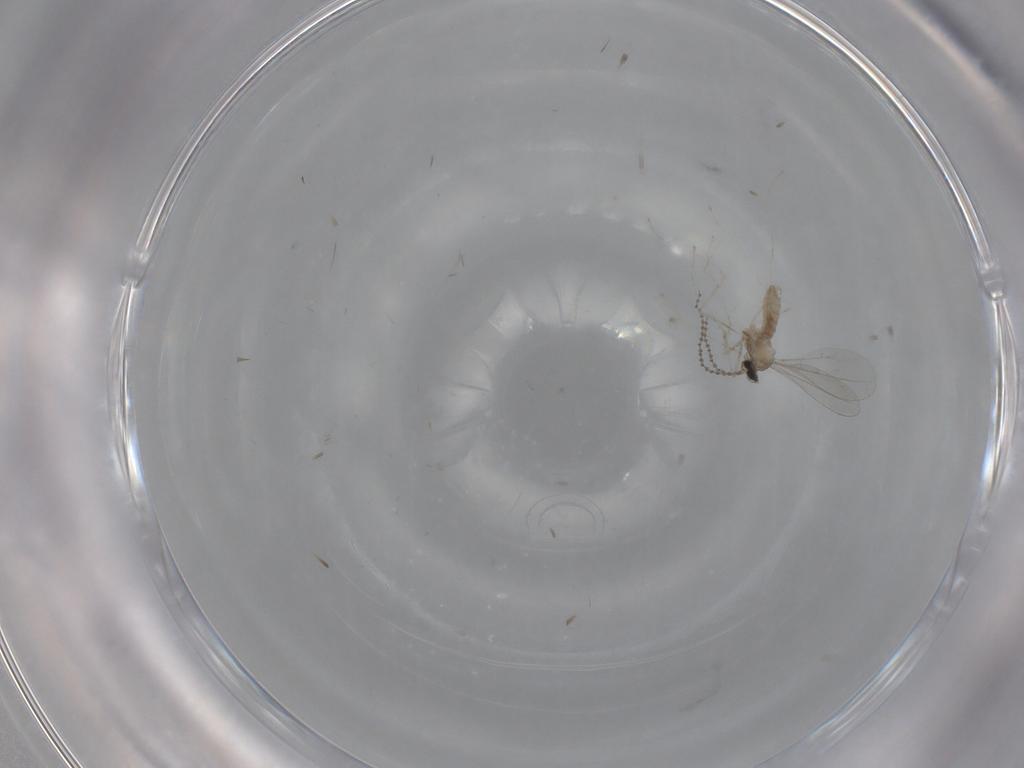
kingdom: Animalia
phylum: Arthropoda
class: Insecta
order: Diptera
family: Cecidomyiidae
